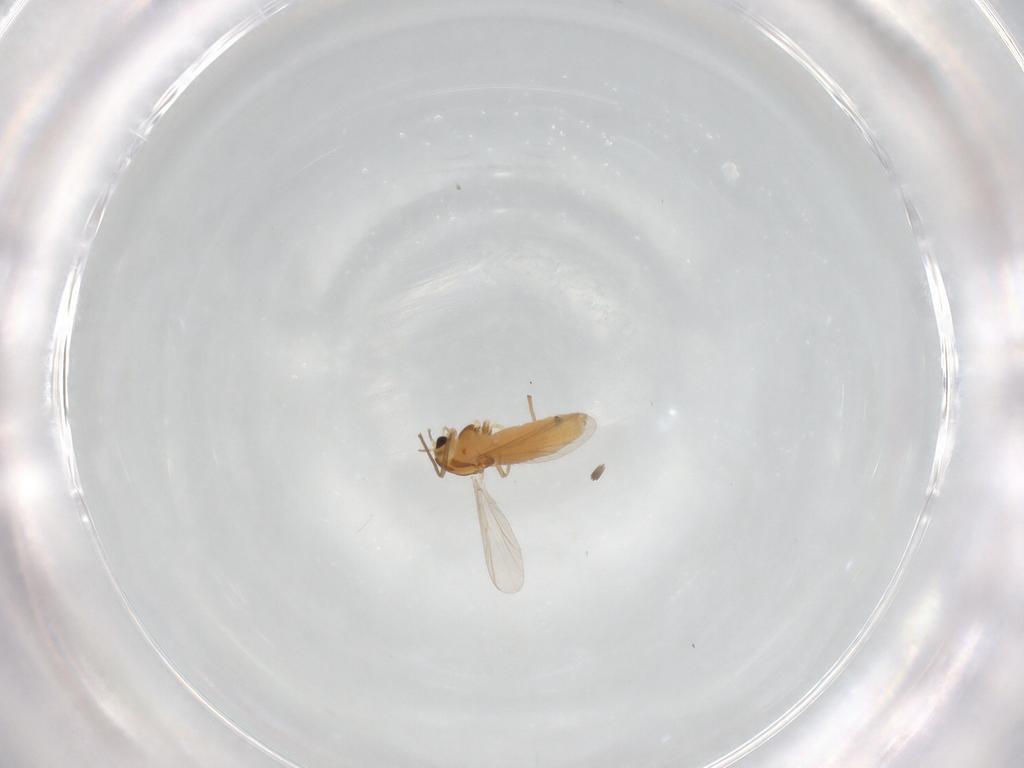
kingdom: Animalia
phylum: Arthropoda
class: Insecta
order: Diptera
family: Chironomidae
